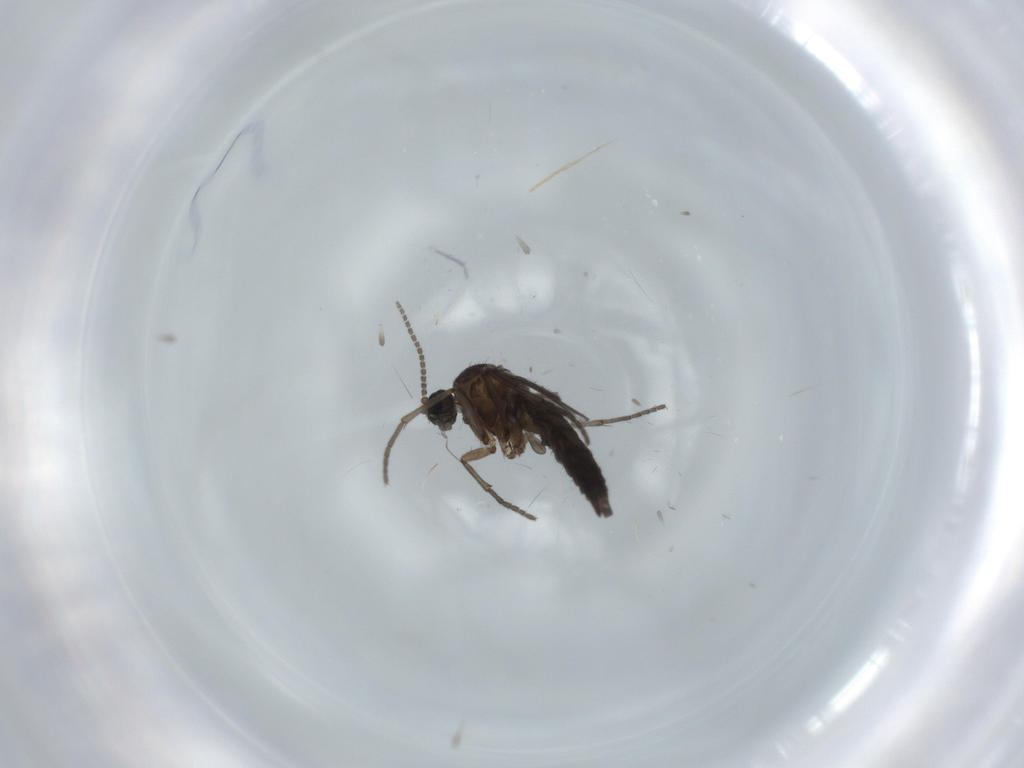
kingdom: Animalia
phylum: Arthropoda
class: Insecta
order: Diptera
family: Sciaridae
